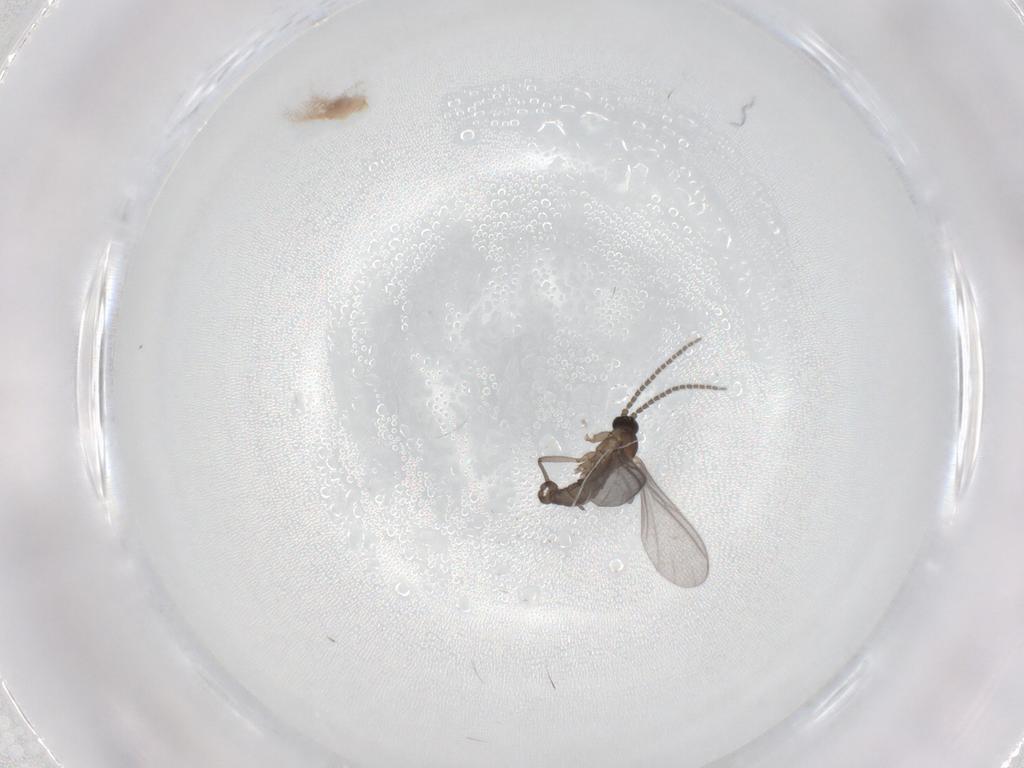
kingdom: Animalia
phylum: Arthropoda
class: Insecta
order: Diptera
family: Sciaridae
